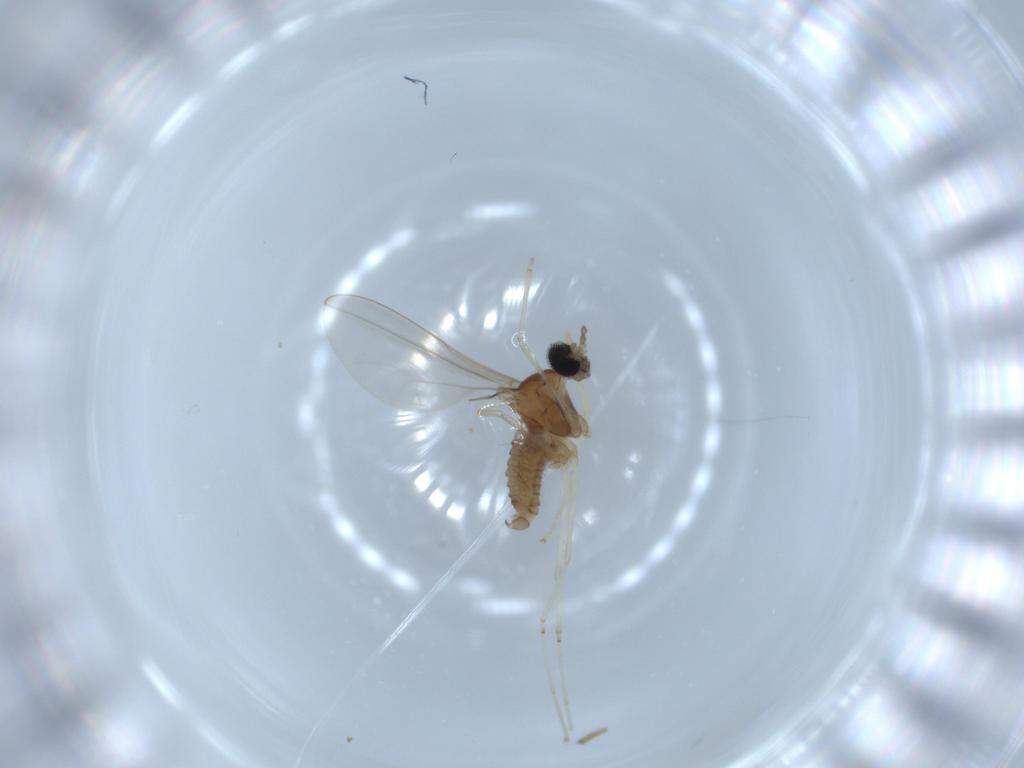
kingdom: Animalia
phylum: Arthropoda
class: Insecta
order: Diptera
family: Cecidomyiidae
